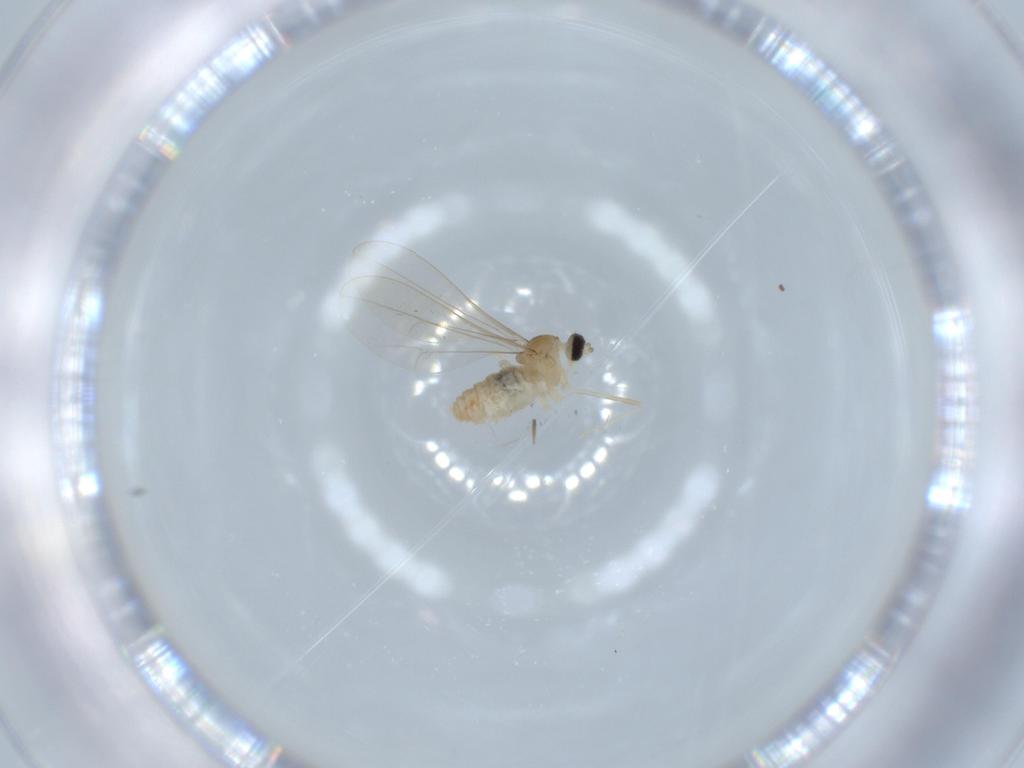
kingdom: Animalia
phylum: Arthropoda
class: Insecta
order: Diptera
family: Cecidomyiidae
